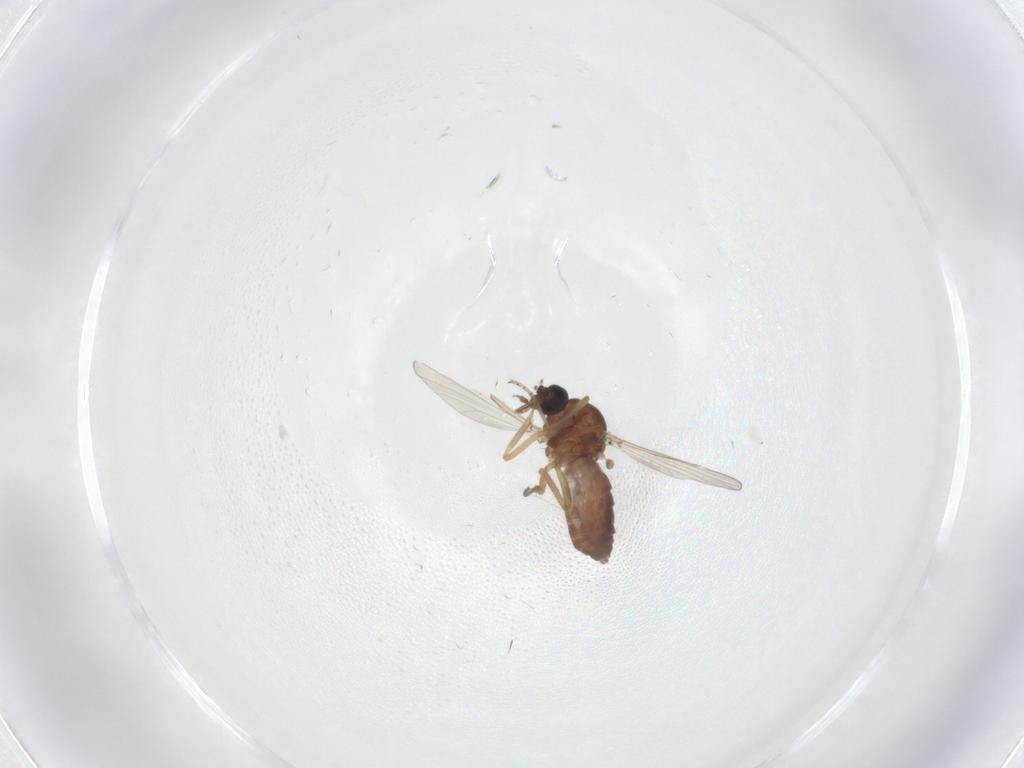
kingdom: Animalia
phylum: Arthropoda
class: Insecta
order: Diptera
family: Ceratopogonidae
